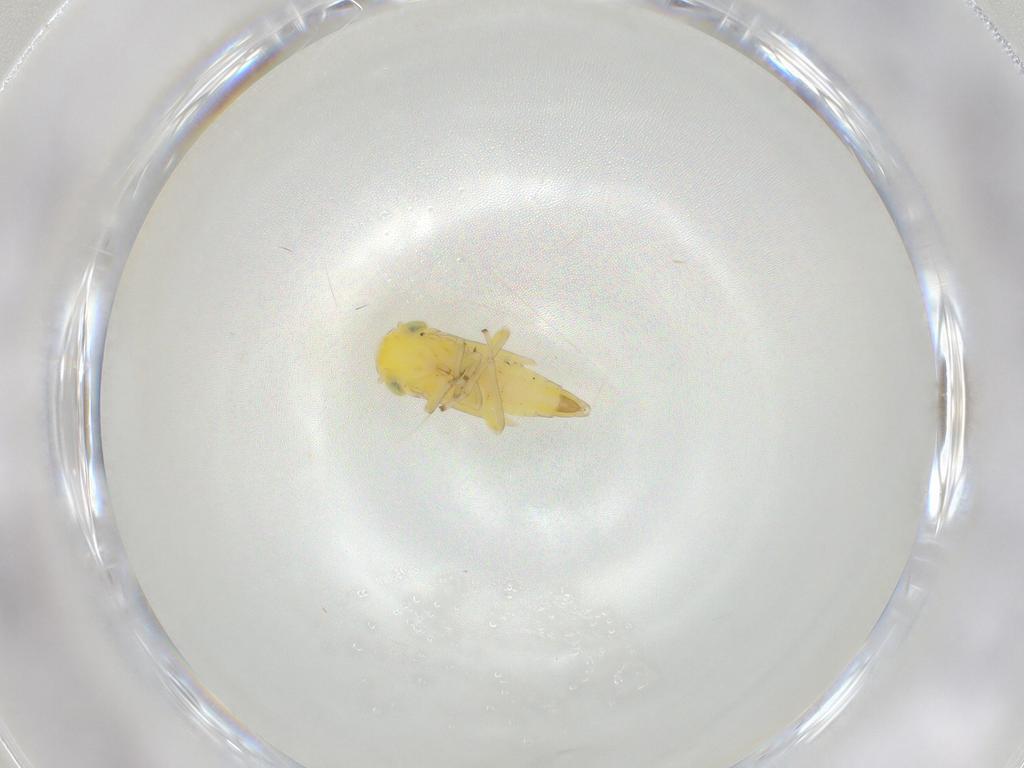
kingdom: Animalia
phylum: Arthropoda
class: Insecta
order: Hemiptera
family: Cicadellidae
